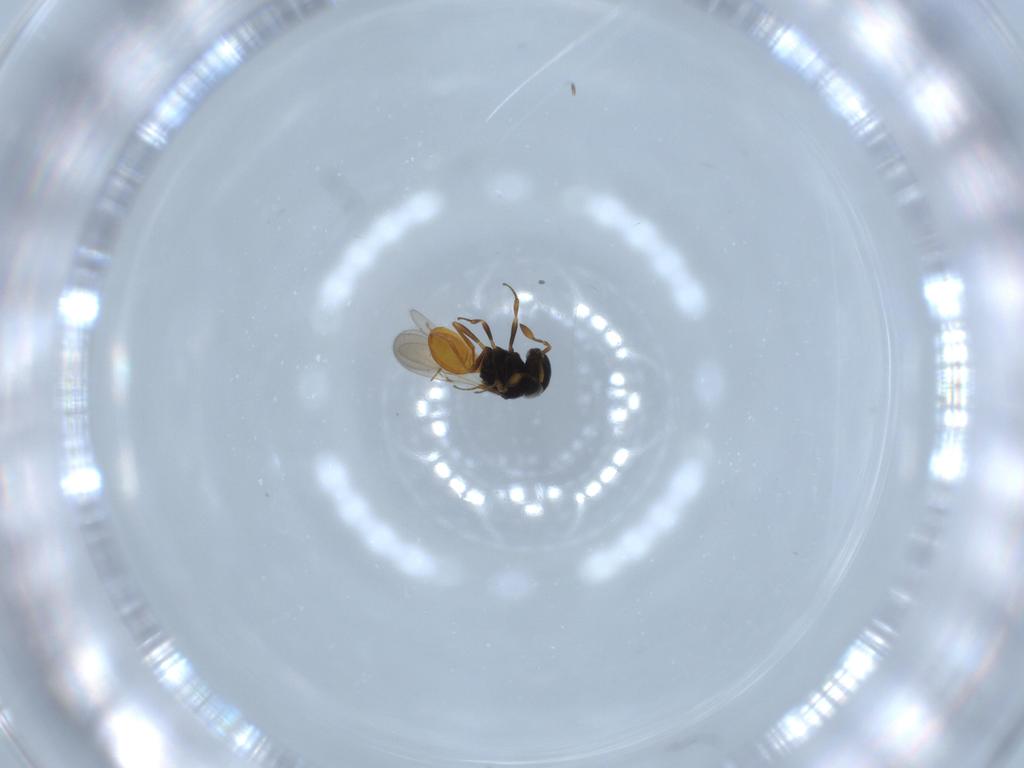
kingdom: Animalia
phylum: Arthropoda
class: Insecta
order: Hymenoptera
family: Scelionidae
